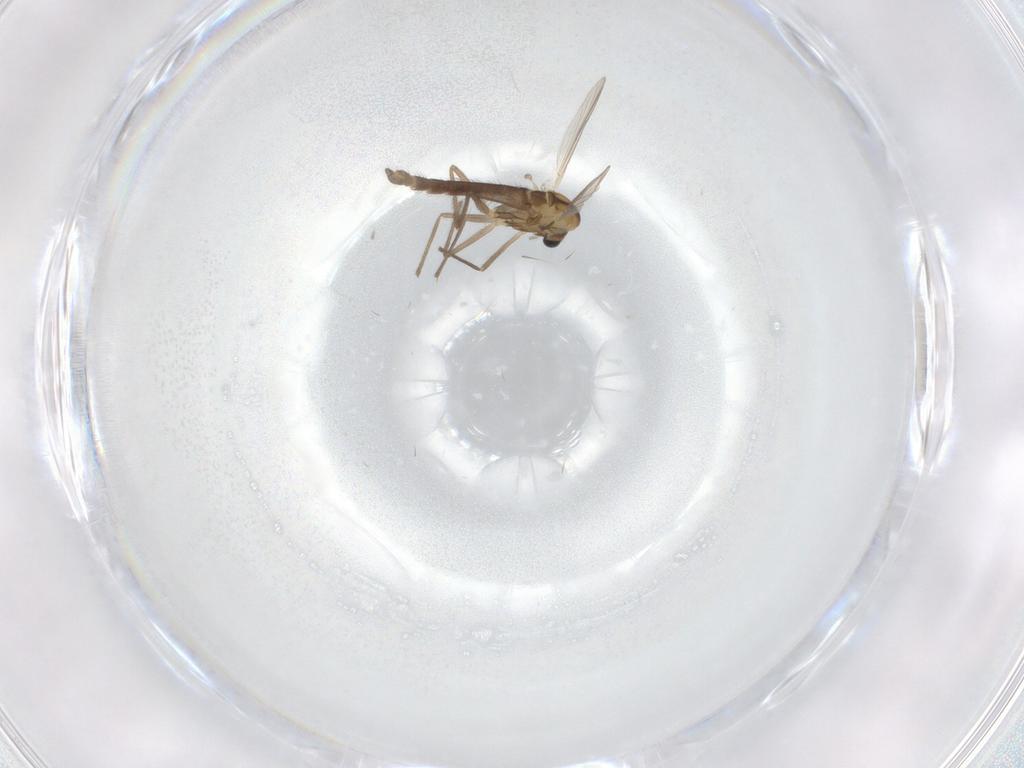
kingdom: Animalia
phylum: Arthropoda
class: Insecta
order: Diptera
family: Chironomidae
